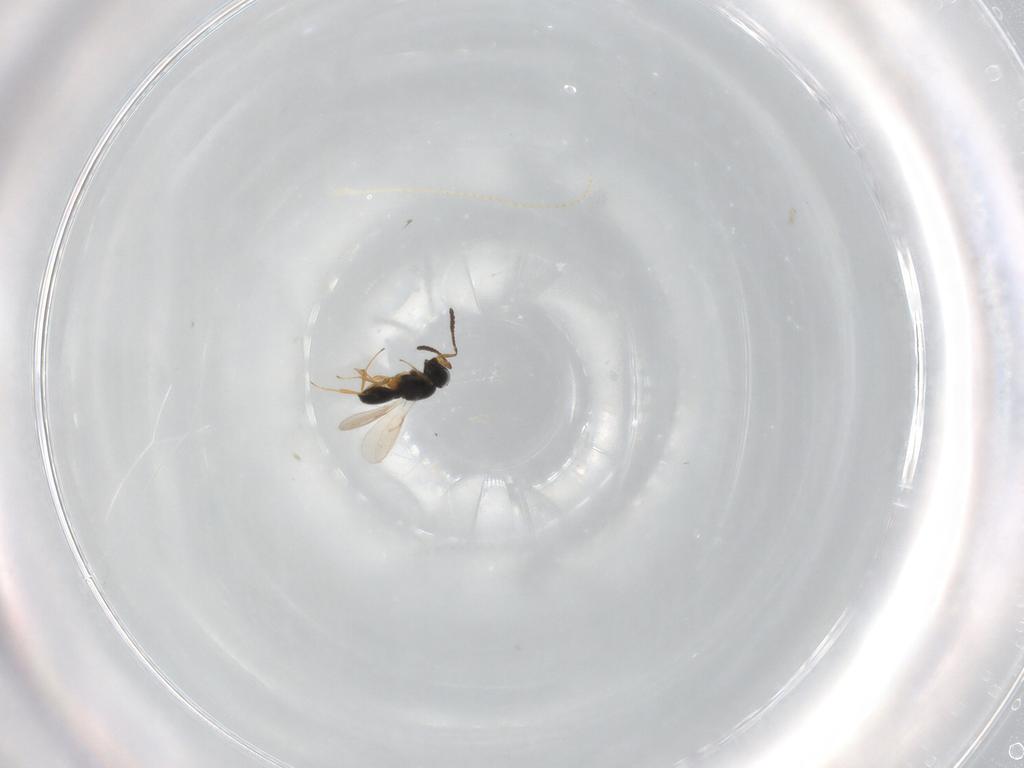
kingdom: Animalia
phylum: Arthropoda
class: Insecta
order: Hymenoptera
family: Scelionidae
